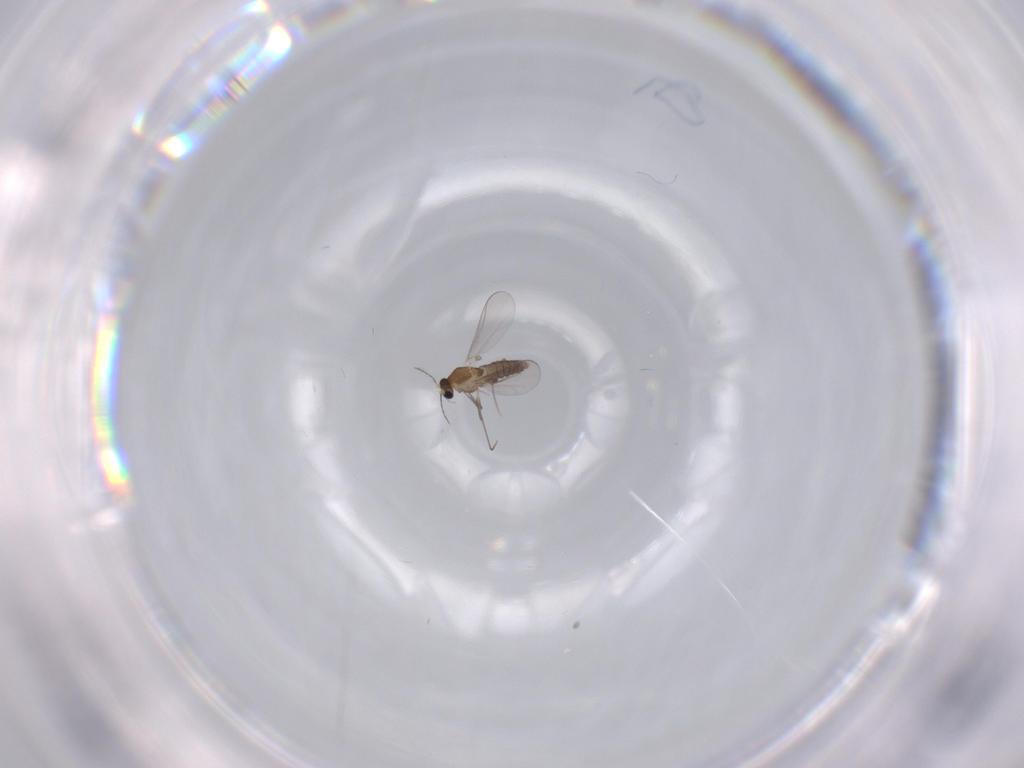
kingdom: Animalia
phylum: Arthropoda
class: Insecta
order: Diptera
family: Chironomidae
